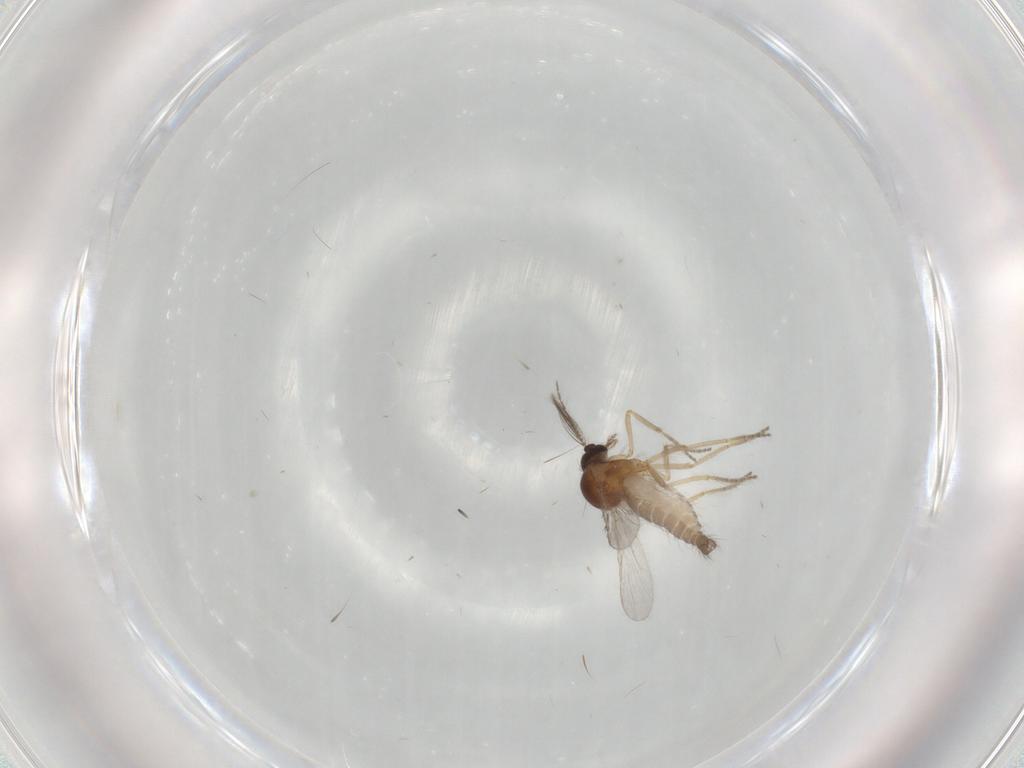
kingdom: Animalia
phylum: Arthropoda
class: Insecta
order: Diptera
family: Ceratopogonidae
